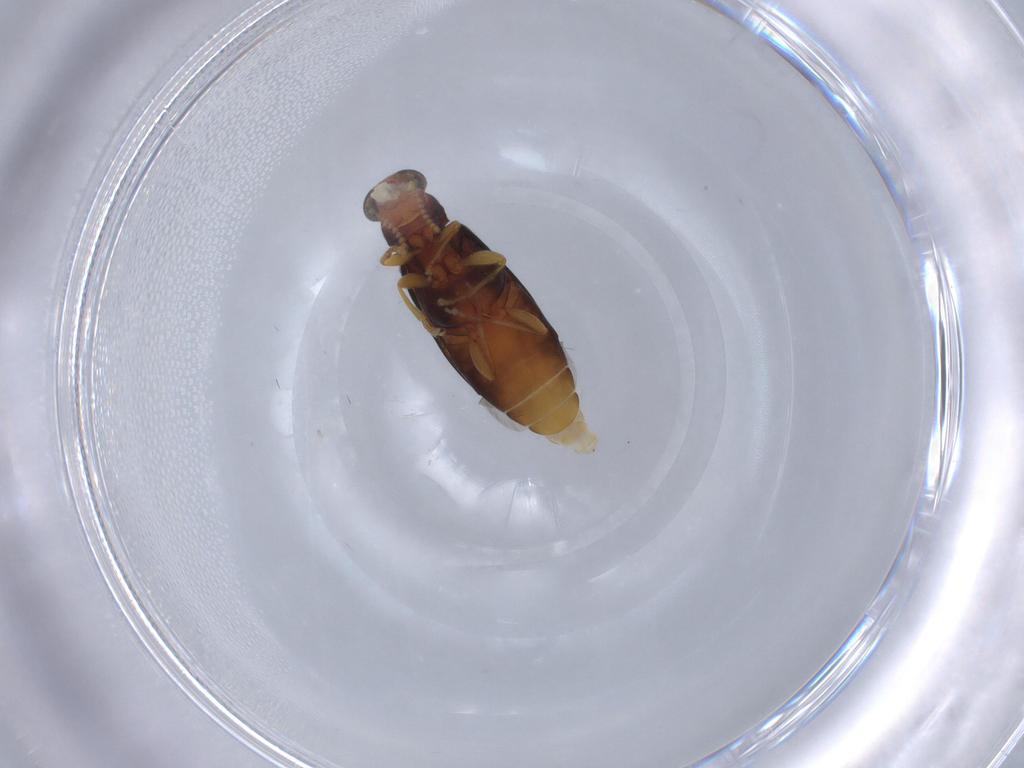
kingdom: Animalia
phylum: Arthropoda
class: Insecta
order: Coleoptera
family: Mycteridae
